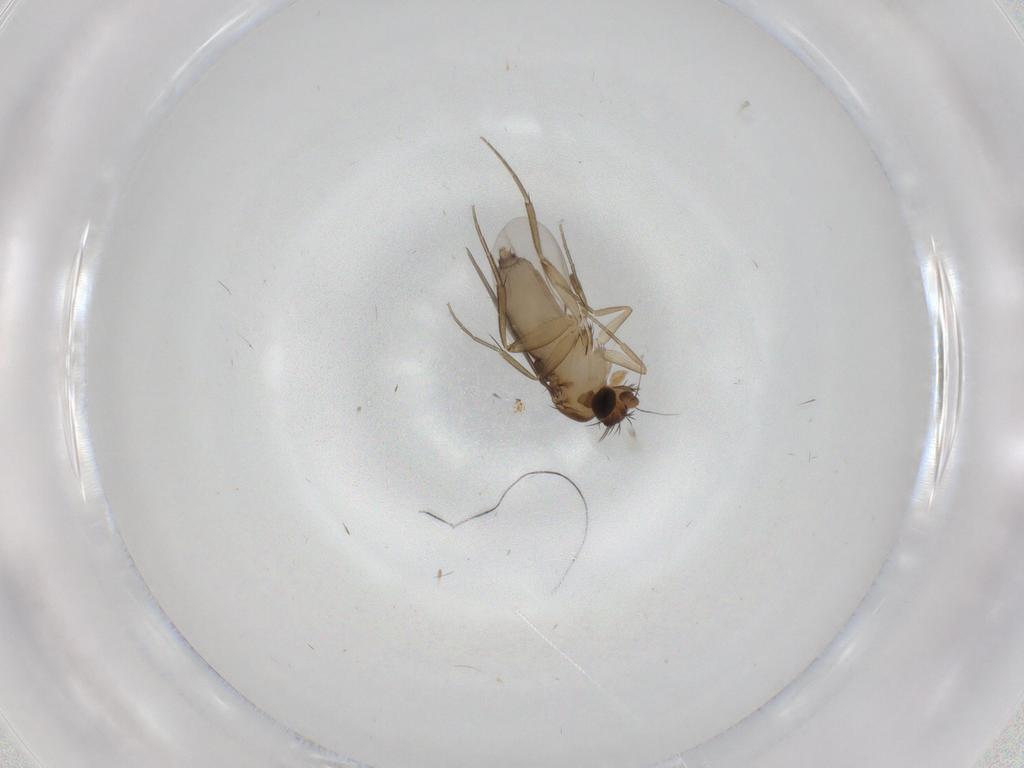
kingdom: Animalia
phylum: Arthropoda
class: Insecta
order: Diptera
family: Phoridae
